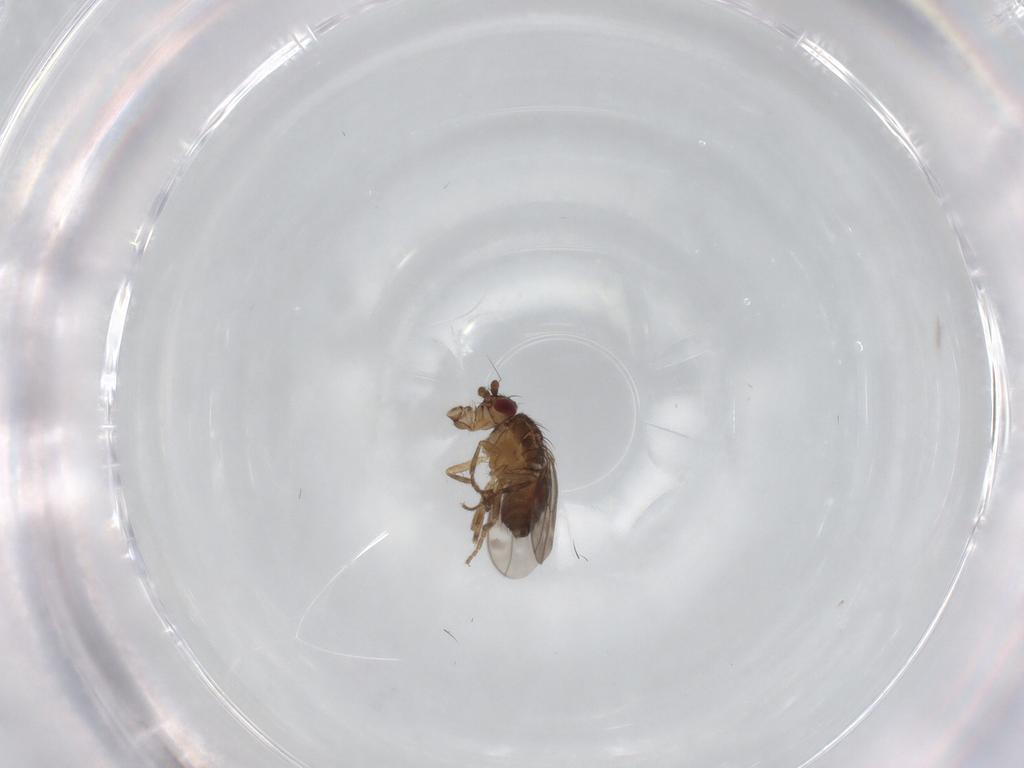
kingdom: Animalia
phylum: Arthropoda
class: Insecta
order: Diptera
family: Sphaeroceridae
